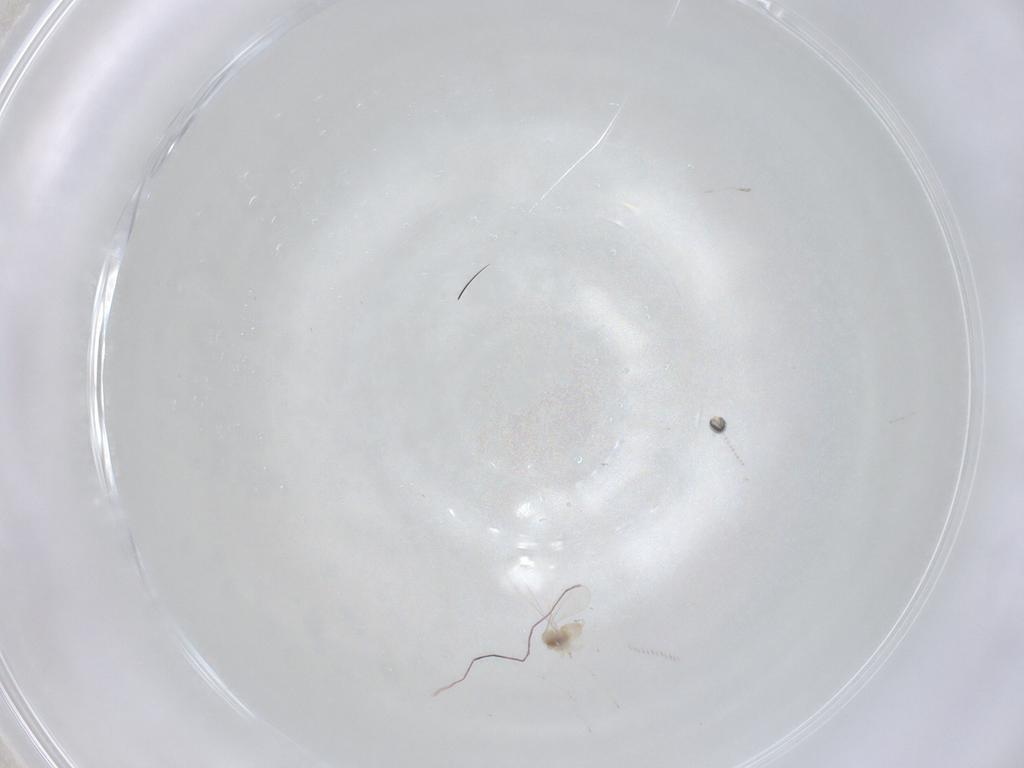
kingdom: Animalia
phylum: Arthropoda
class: Insecta
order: Diptera
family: Cecidomyiidae
